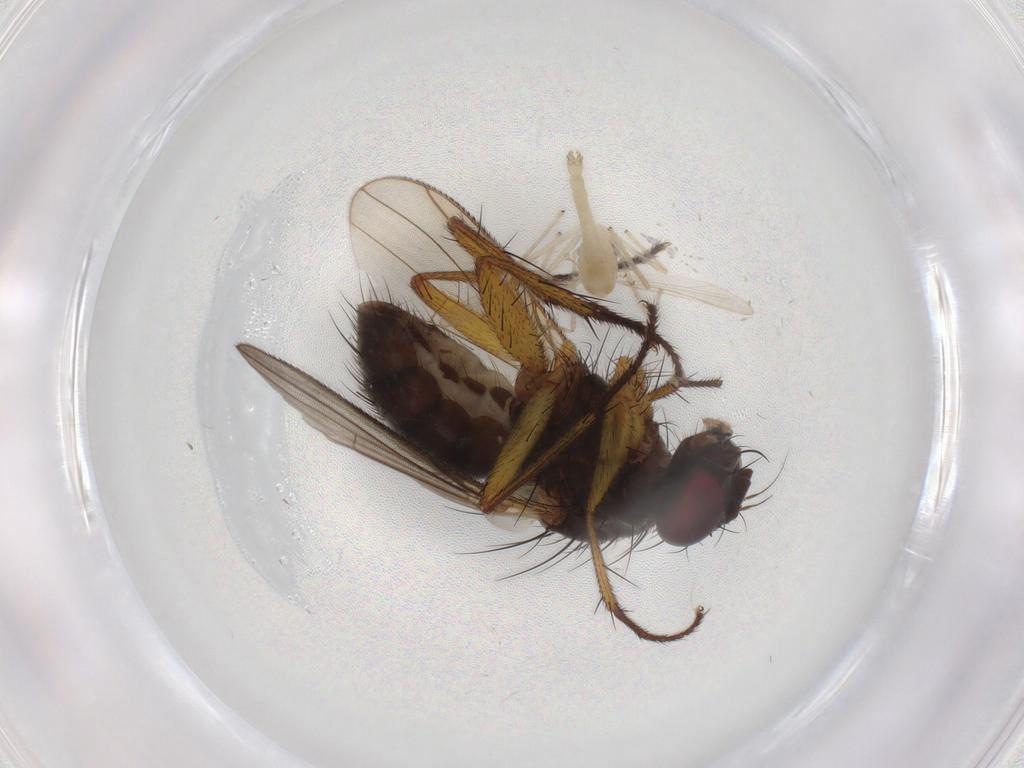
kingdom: Animalia
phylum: Arthropoda
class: Insecta
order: Diptera
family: Muscidae
